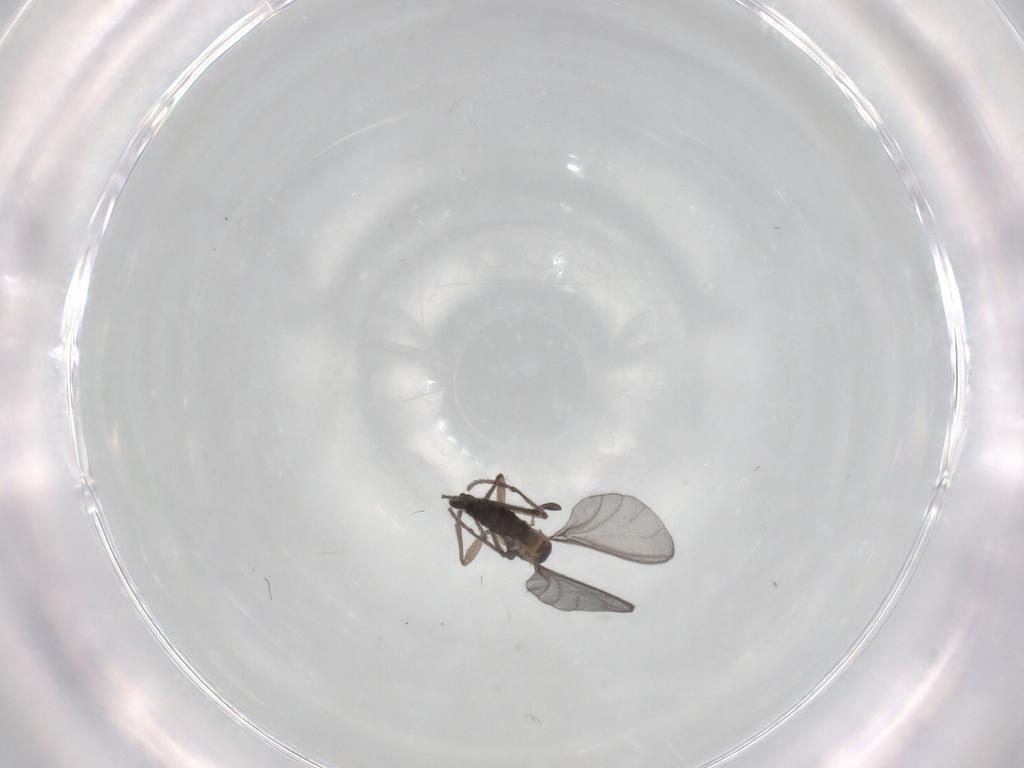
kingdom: Animalia
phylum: Arthropoda
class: Insecta
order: Diptera
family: Sciaridae
